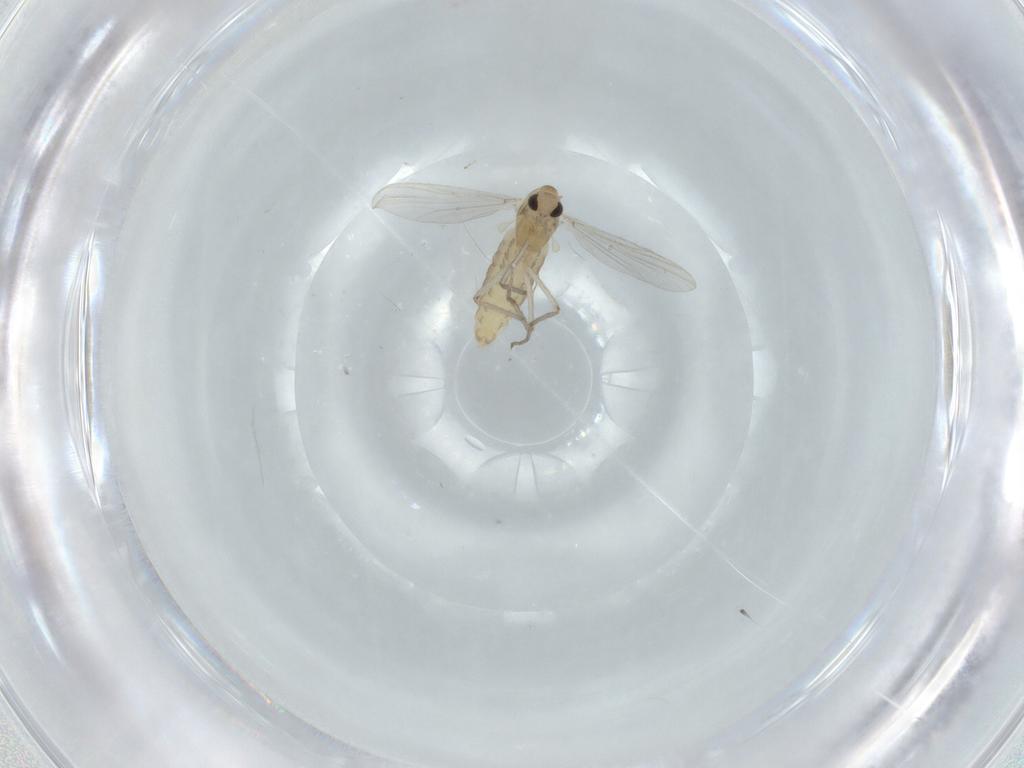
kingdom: Animalia
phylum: Arthropoda
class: Insecta
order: Diptera
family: Chironomidae
